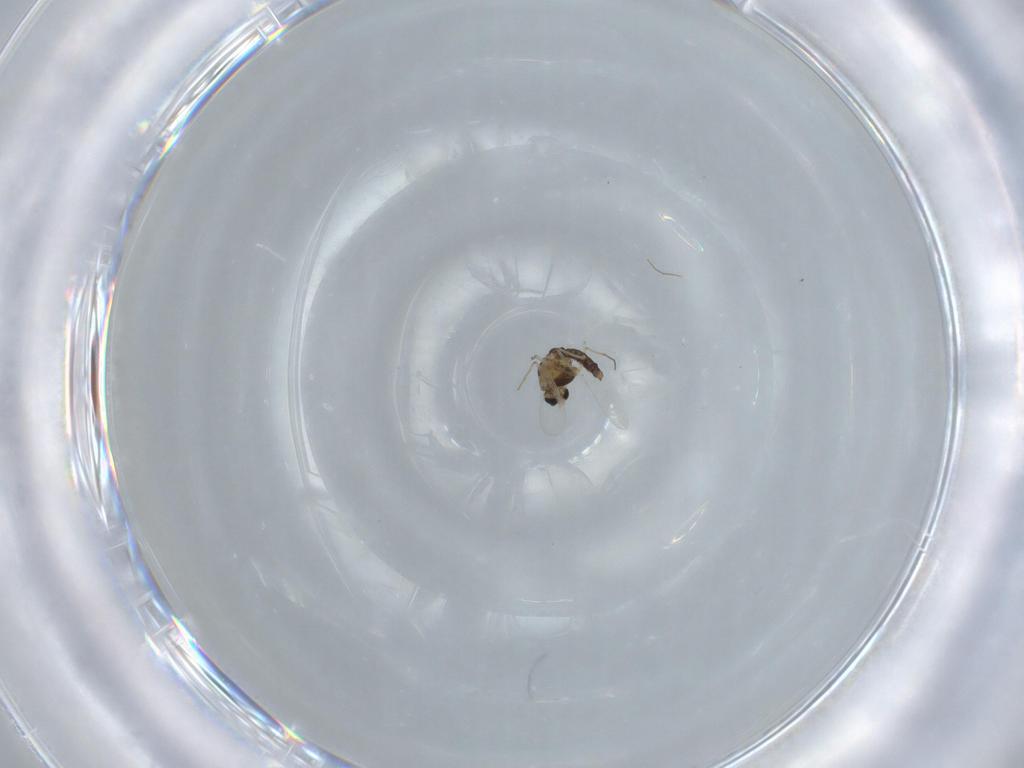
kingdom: Animalia
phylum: Arthropoda
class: Insecta
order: Diptera
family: Chironomidae
